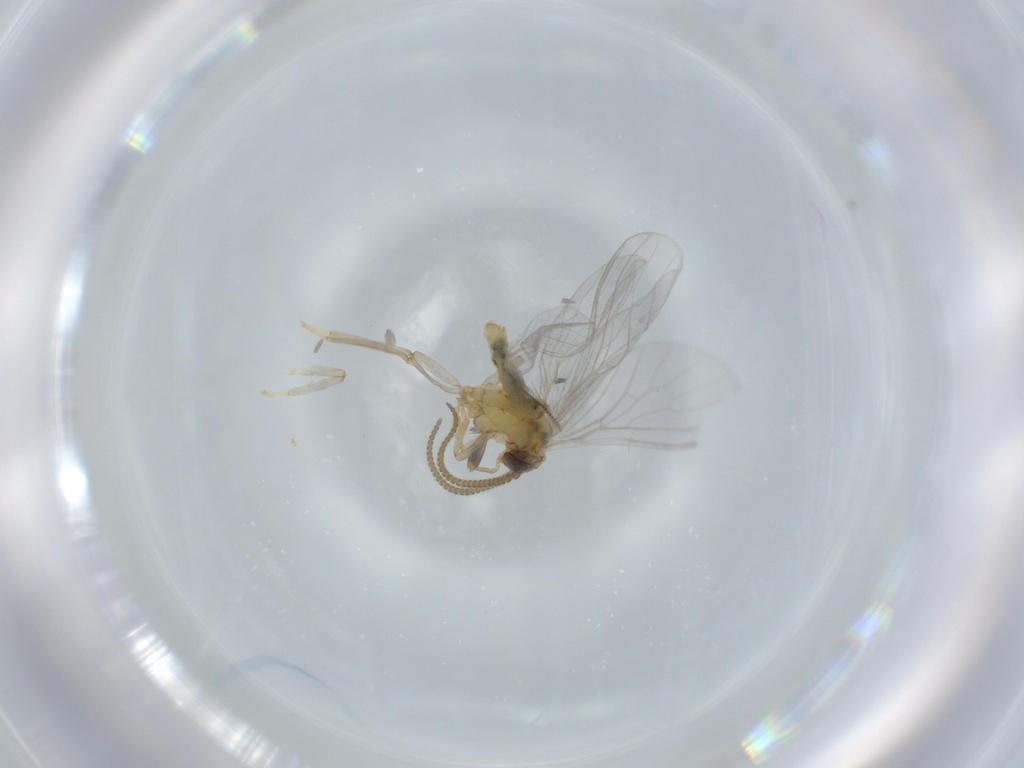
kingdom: Animalia
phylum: Arthropoda
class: Insecta
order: Neuroptera
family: Coniopterygidae
